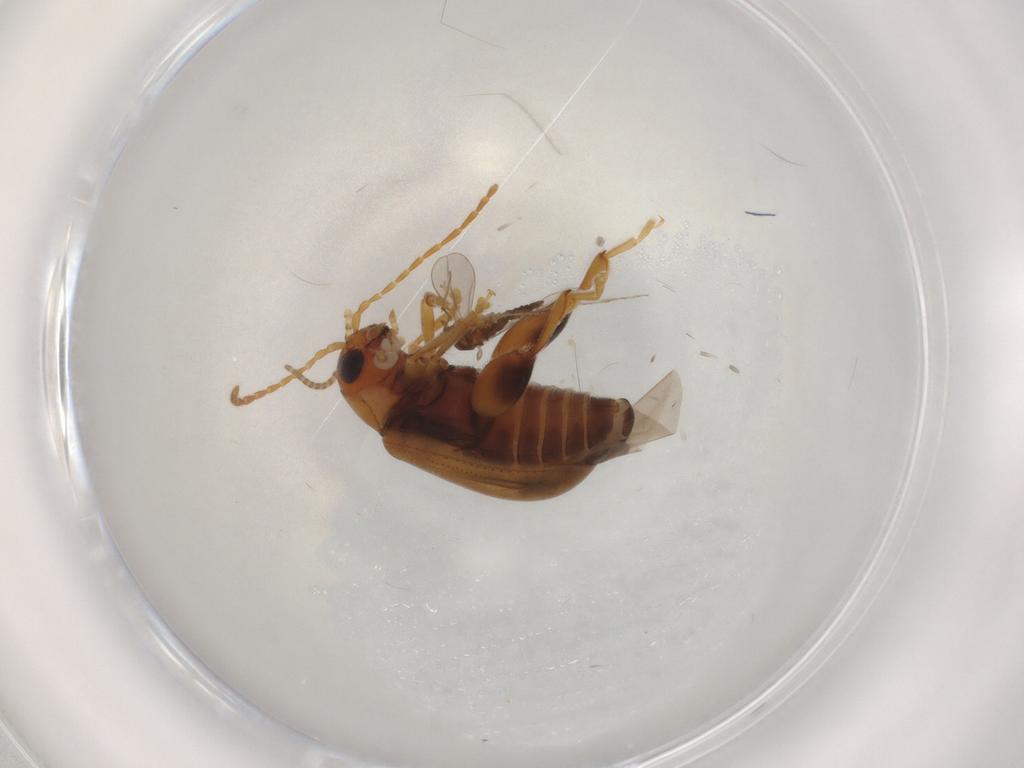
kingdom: Animalia
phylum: Arthropoda
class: Insecta
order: Coleoptera
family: Chrysomelidae
